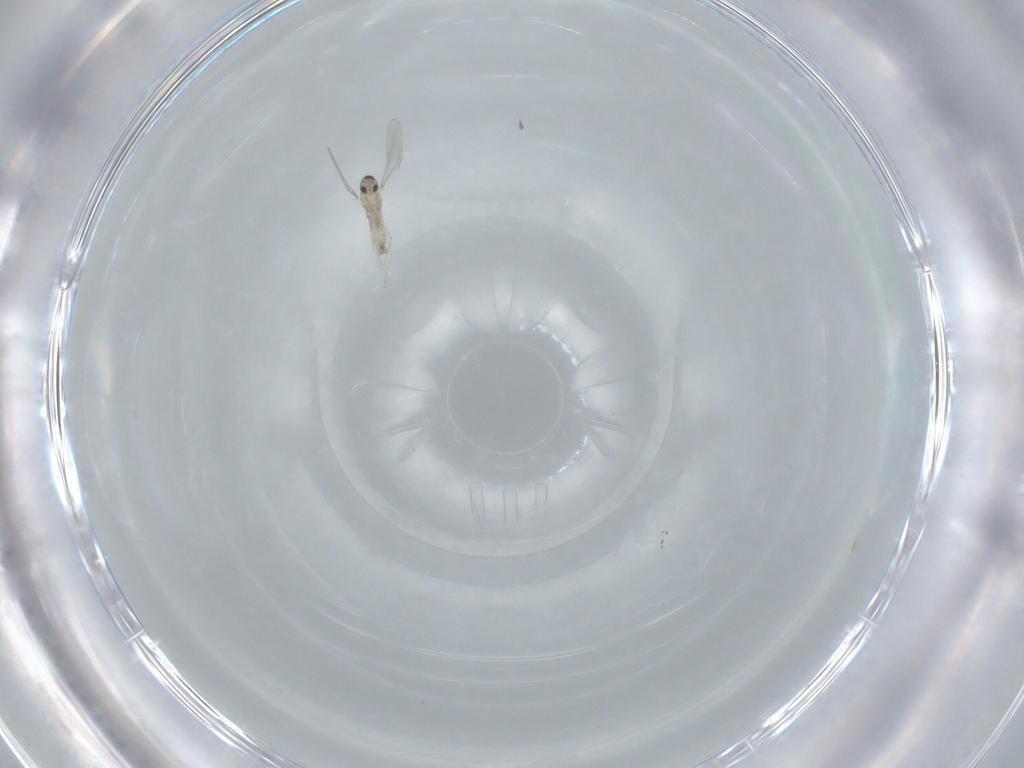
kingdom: Animalia
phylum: Arthropoda
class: Insecta
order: Diptera
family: Cecidomyiidae
